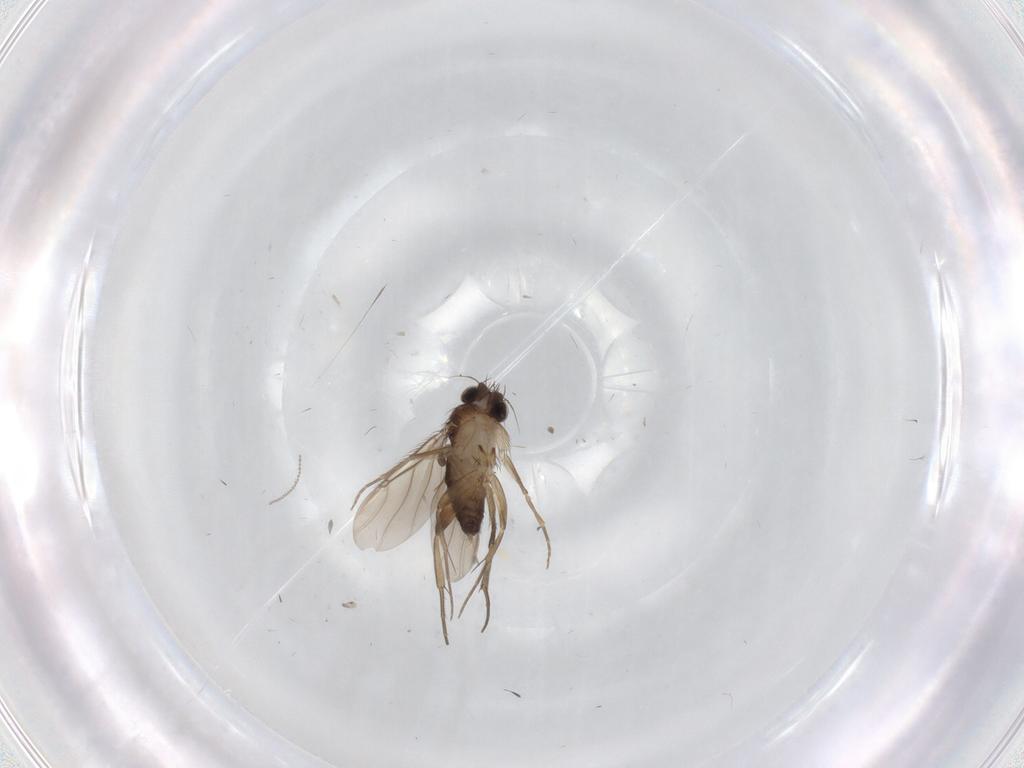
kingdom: Animalia
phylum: Arthropoda
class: Insecta
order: Diptera
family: Phoridae
